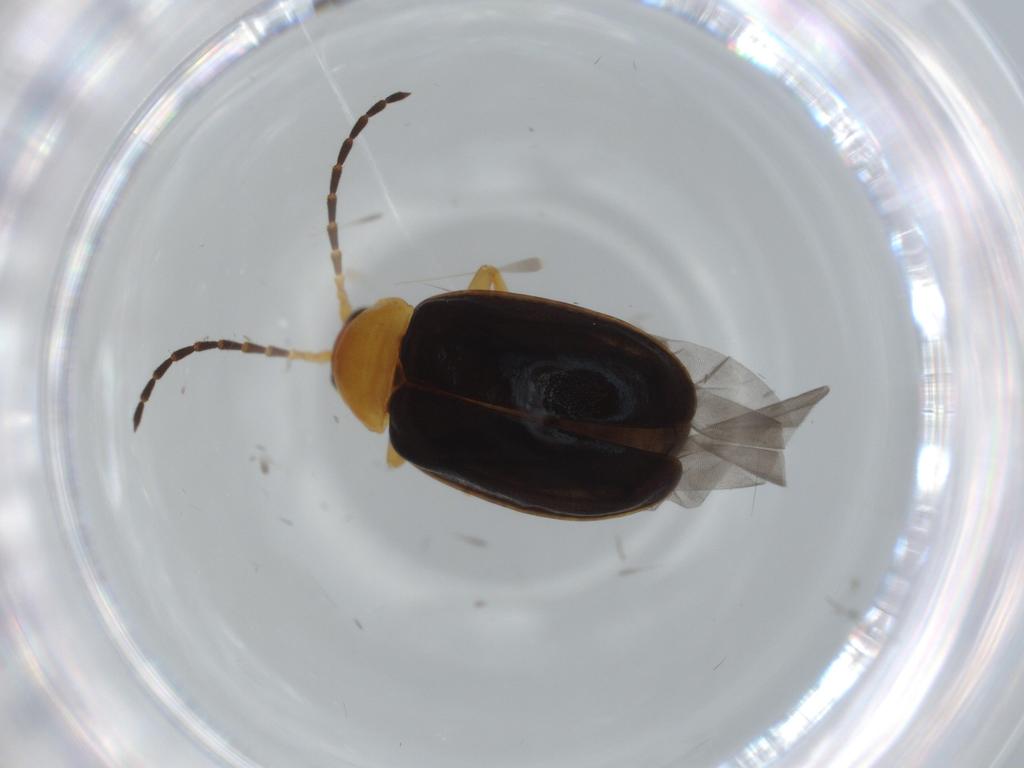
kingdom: Animalia
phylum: Arthropoda
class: Insecta
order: Coleoptera
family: Chrysomelidae
